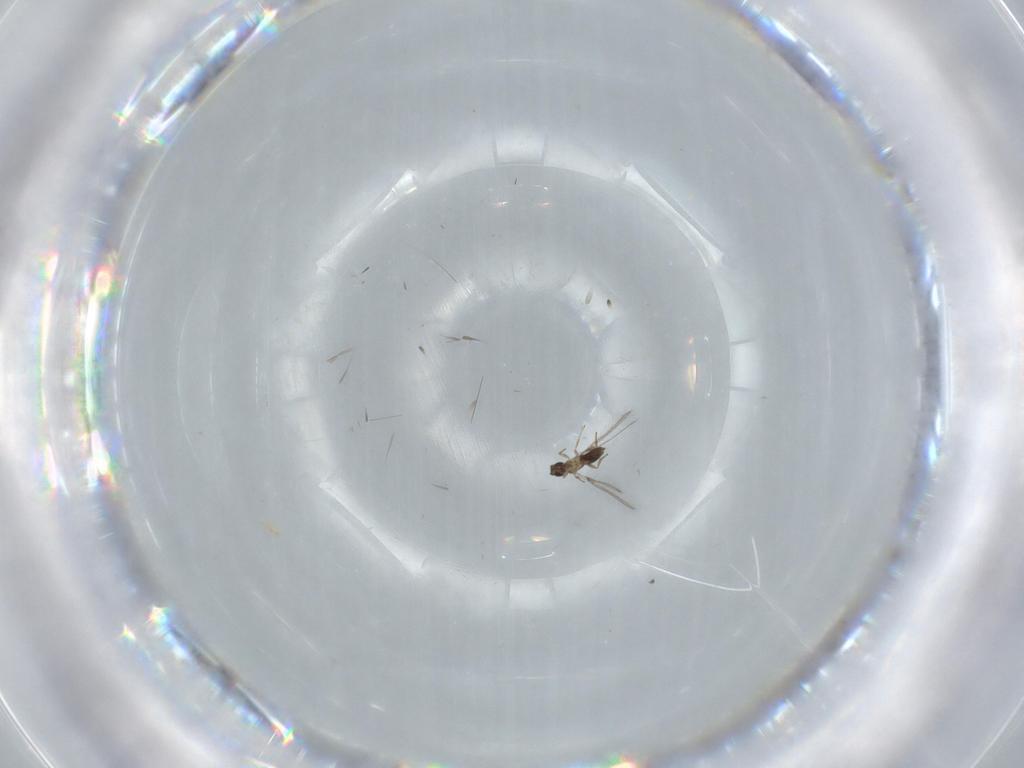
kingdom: Animalia
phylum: Arthropoda
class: Insecta
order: Hymenoptera
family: Mymaridae
